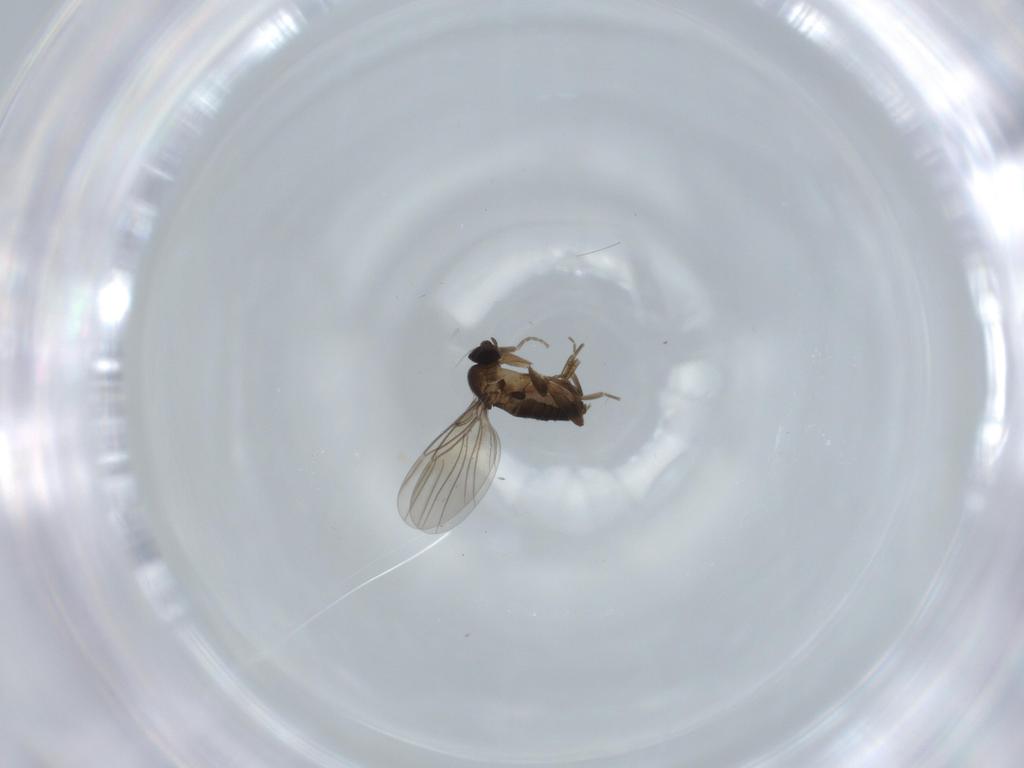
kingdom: Animalia
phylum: Arthropoda
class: Insecta
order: Diptera
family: Phoridae
